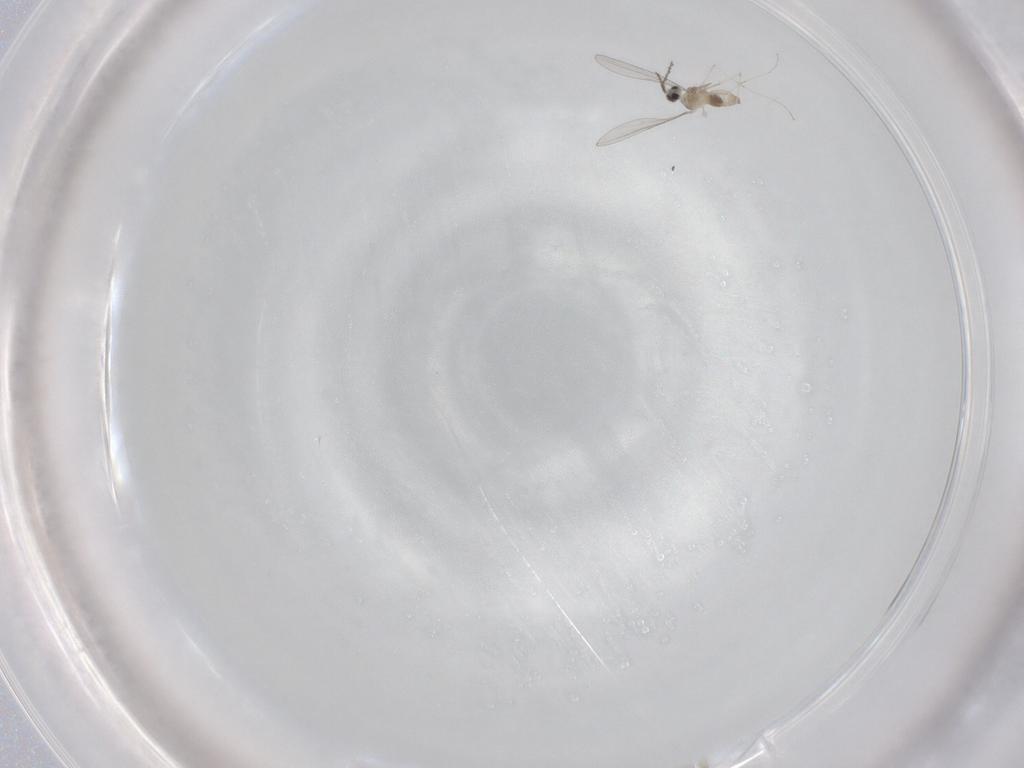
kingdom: Animalia
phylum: Arthropoda
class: Insecta
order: Diptera
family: Cecidomyiidae
